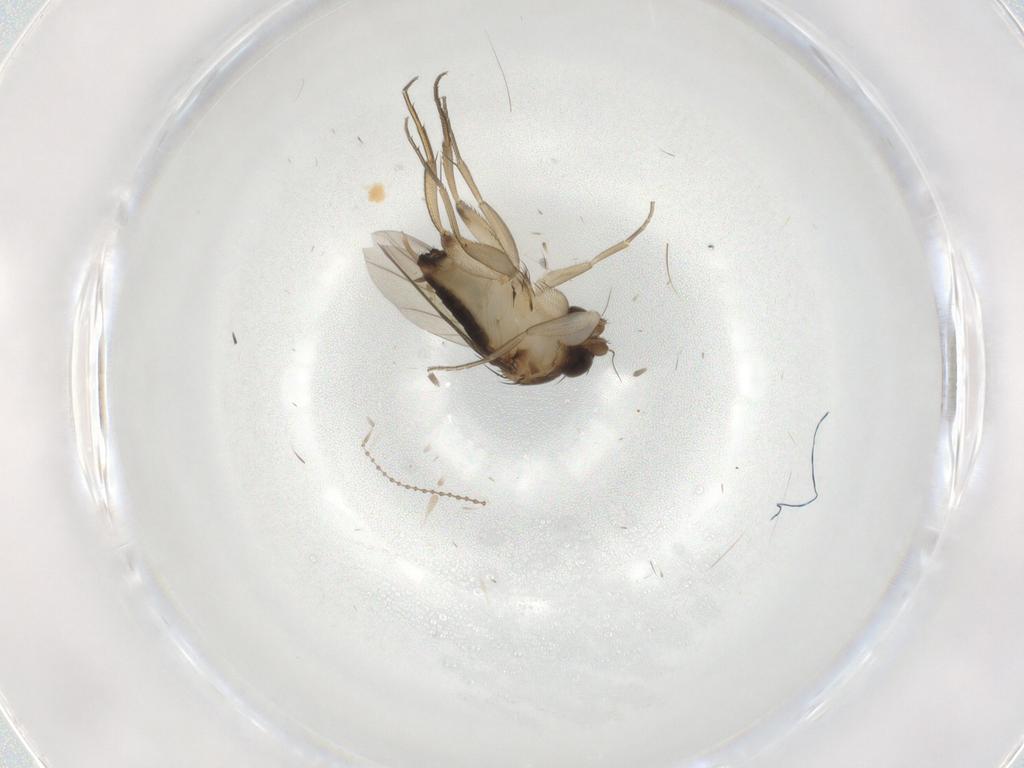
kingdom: Animalia
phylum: Arthropoda
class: Insecta
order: Diptera
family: Phoridae
